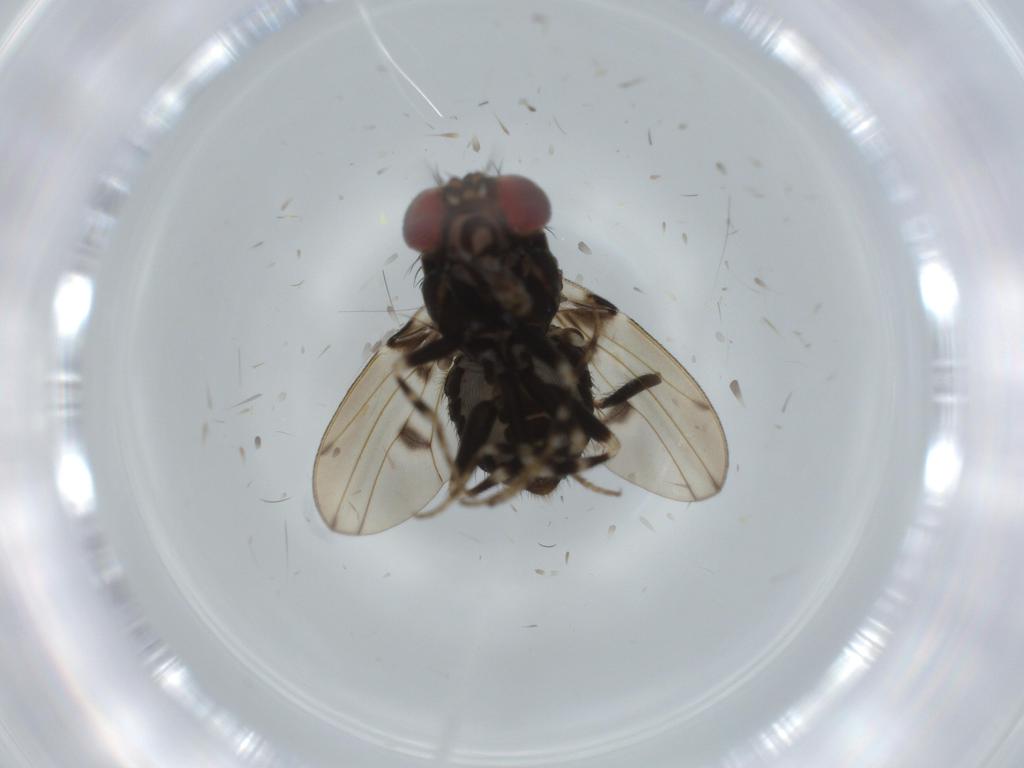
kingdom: Animalia
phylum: Arthropoda
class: Insecta
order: Diptera
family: Drosophilidae
